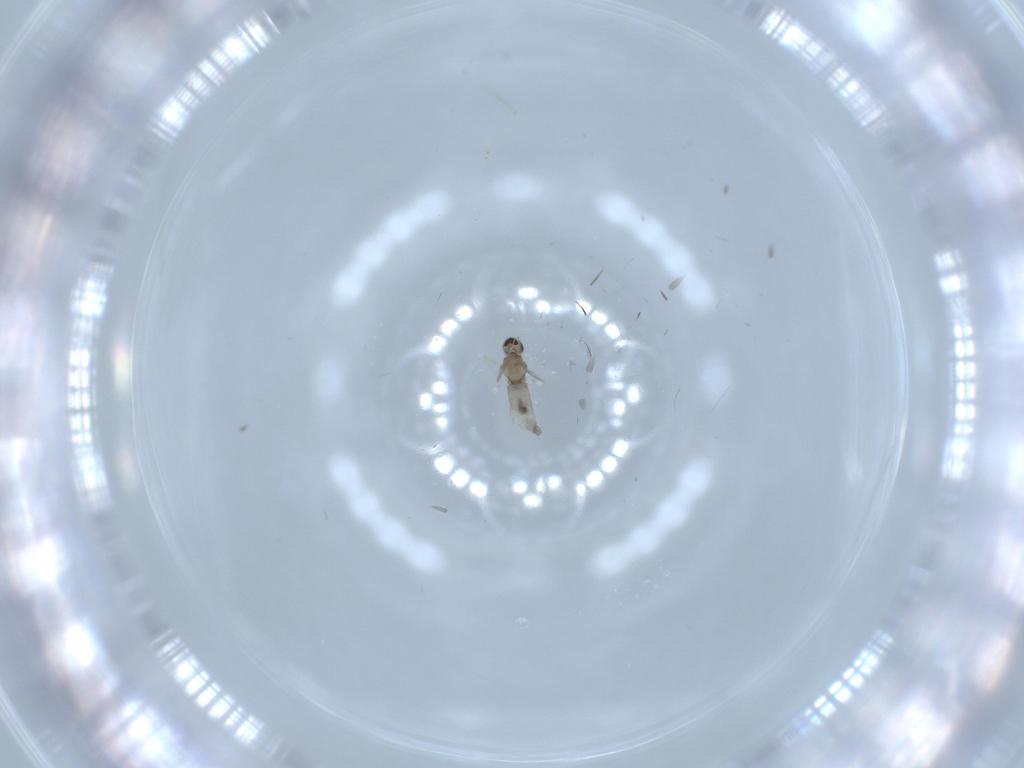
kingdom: Animalia
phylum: Arthropoda
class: Insecta
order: Diptera
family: Cecidomyiidae
